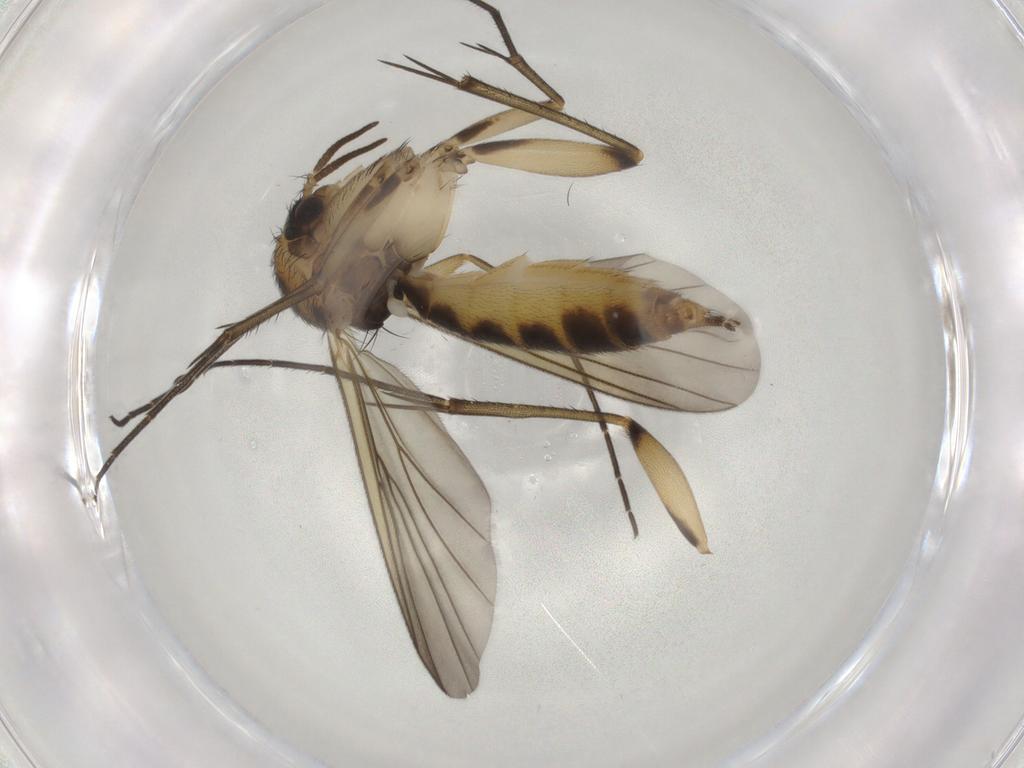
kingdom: Animalia
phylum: Arthropoda
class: Insecta
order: Diptera
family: Mycetophilidae
